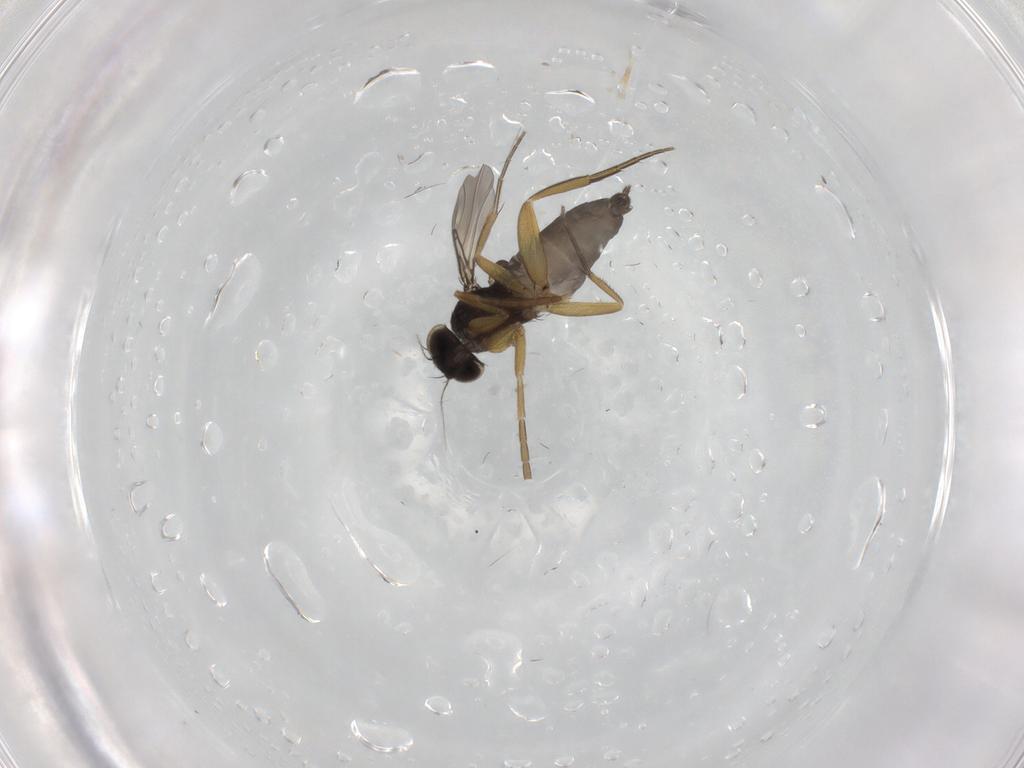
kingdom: Animalia
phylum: Arthropoda
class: Insecta
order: Diptera
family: Phoridae
